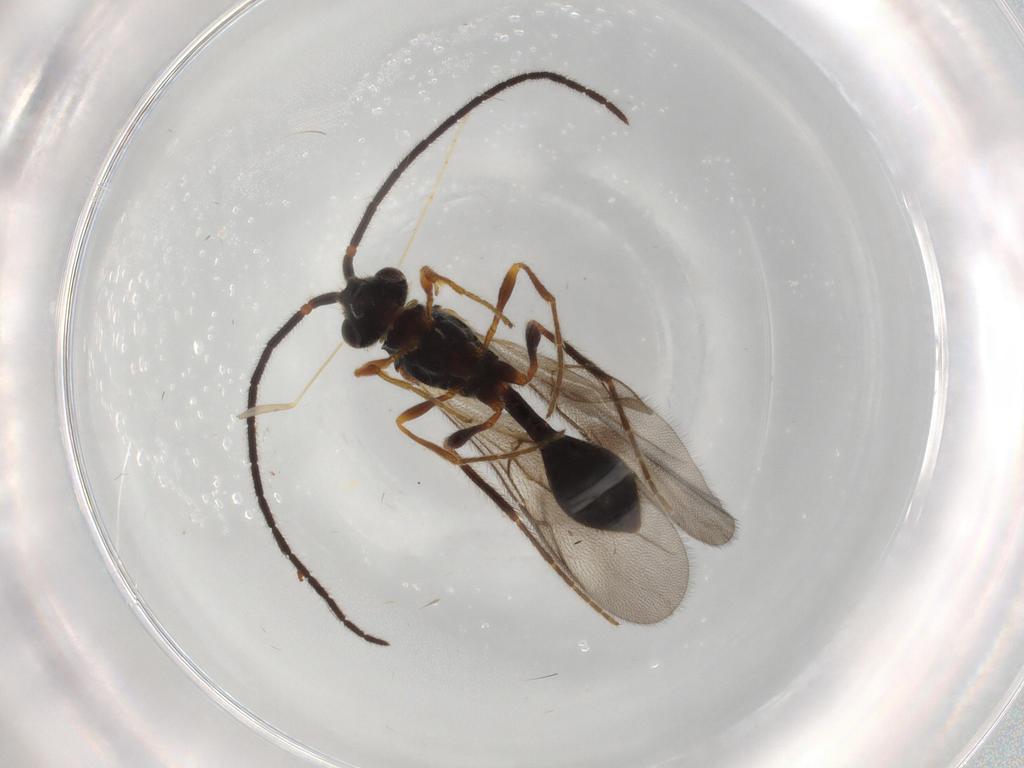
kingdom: Animalia
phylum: Arthropoda
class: Insecta
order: Hymenoptera
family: Diapriidae
